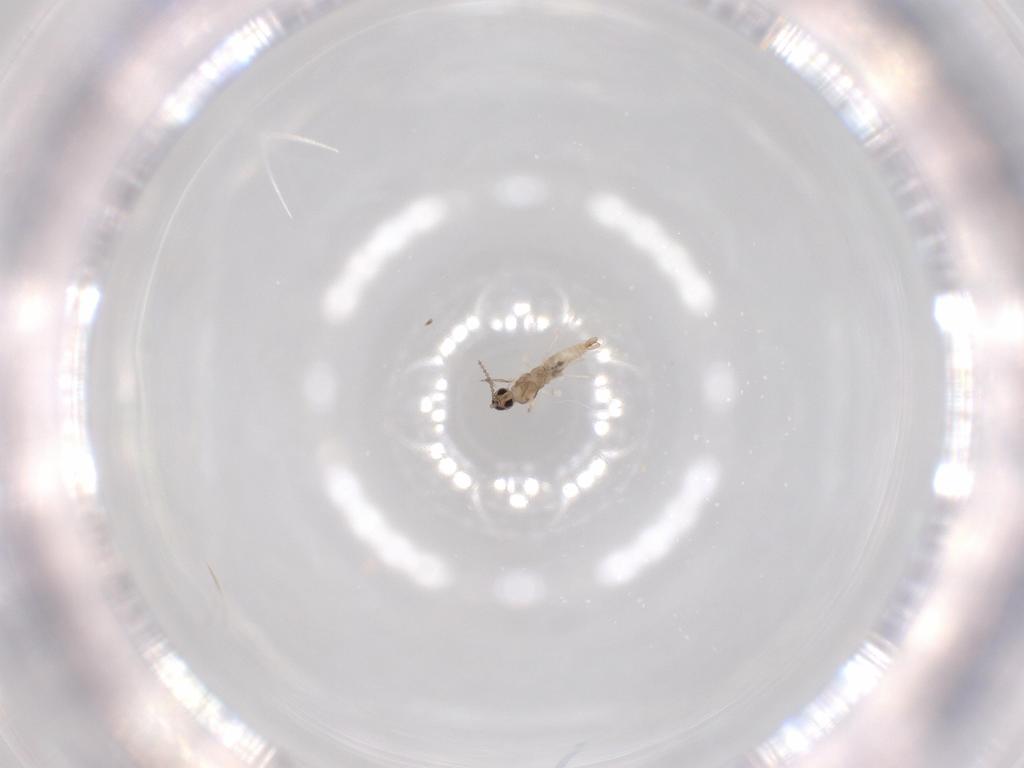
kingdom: Animalia
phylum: Arthropoda
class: Insecta
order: Diptera
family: Cecidomyiidae
